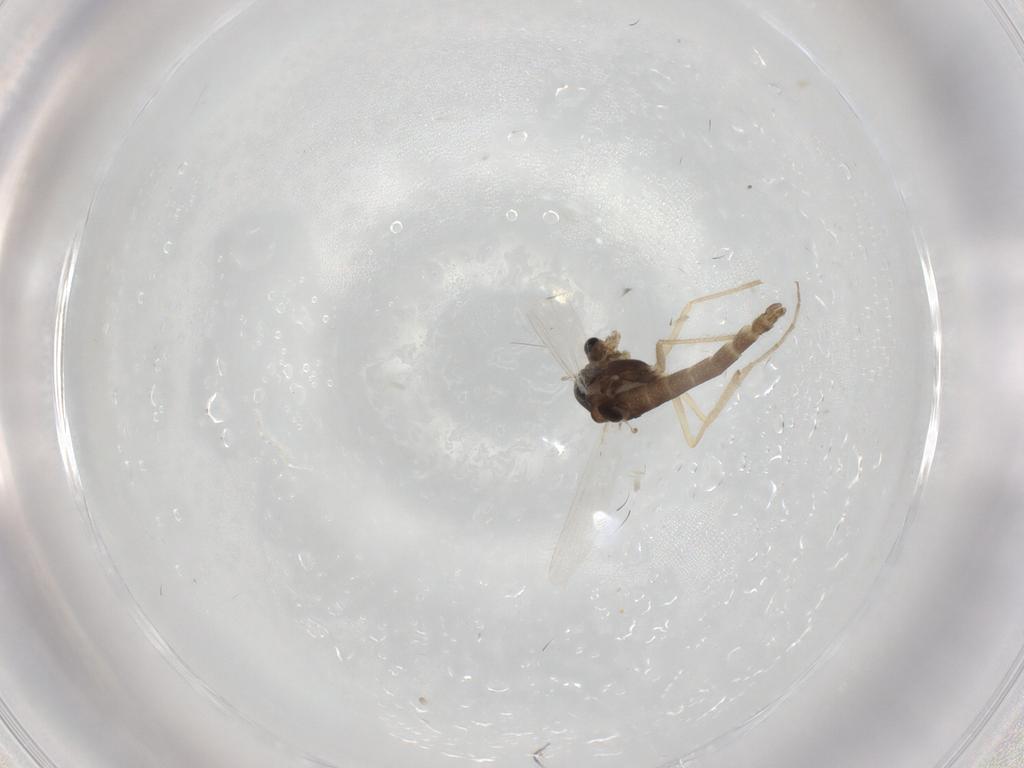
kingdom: Animalia
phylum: Arthropoda
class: Insecta
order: Diptera
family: Chironomidae
